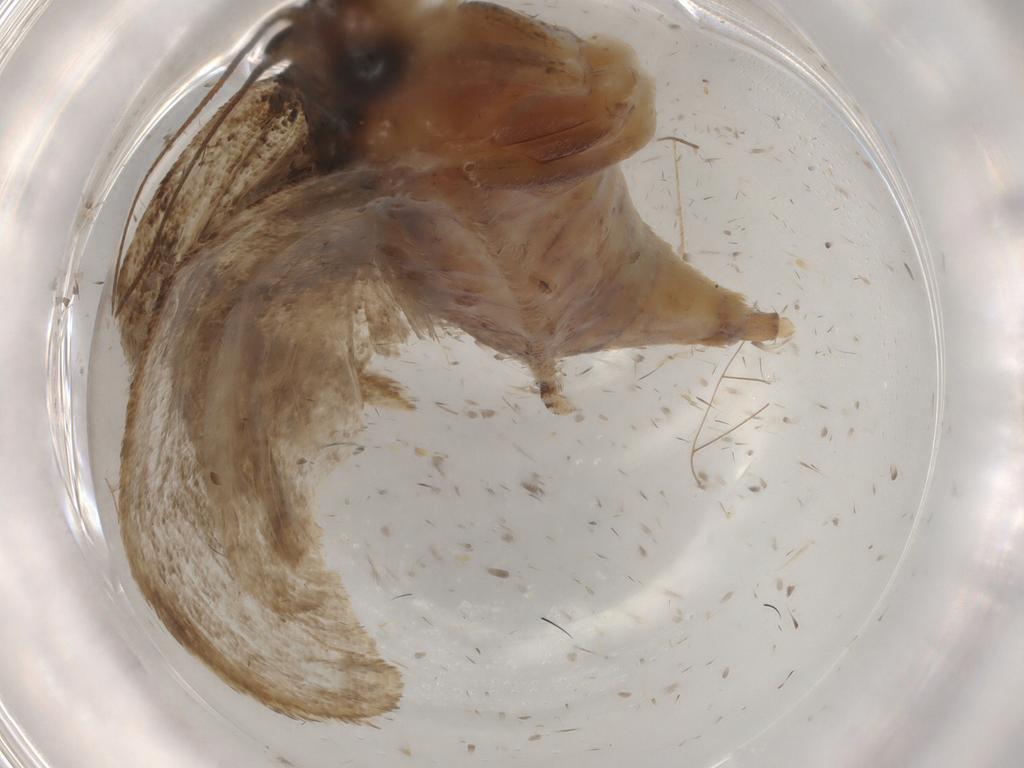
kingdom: Animalia
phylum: Arthropoda
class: Insecta
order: Lepidoptera
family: Crambidae
